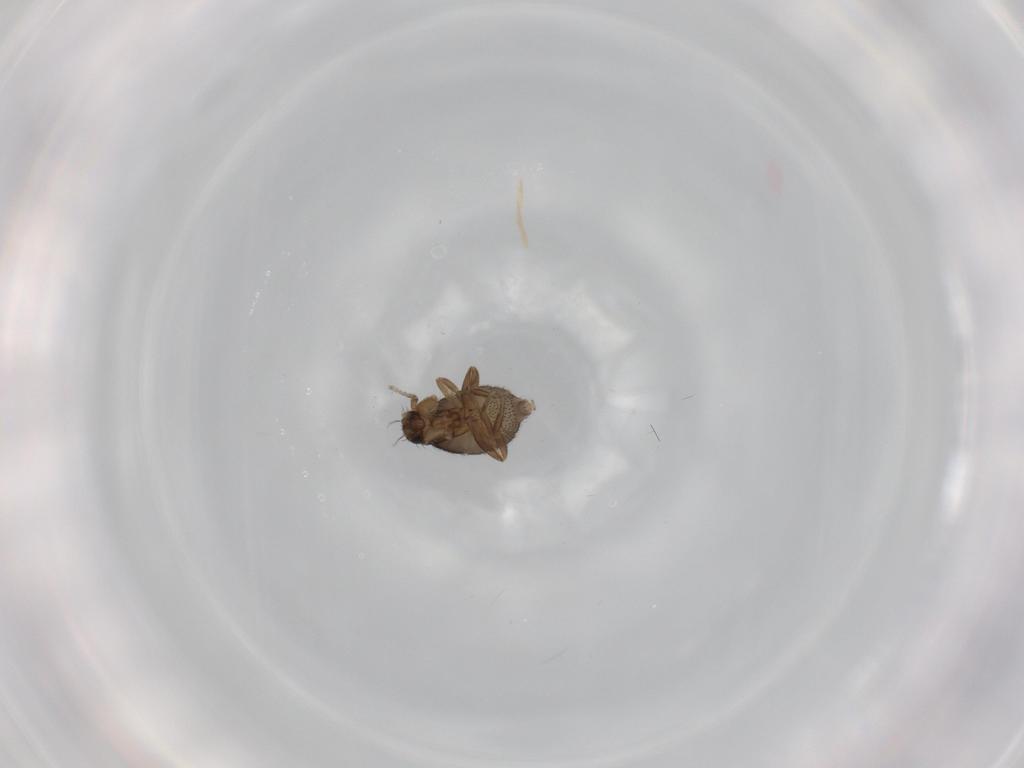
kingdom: Animalia
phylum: Arthropoda
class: Insecta
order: Diptera
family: Phoridae
